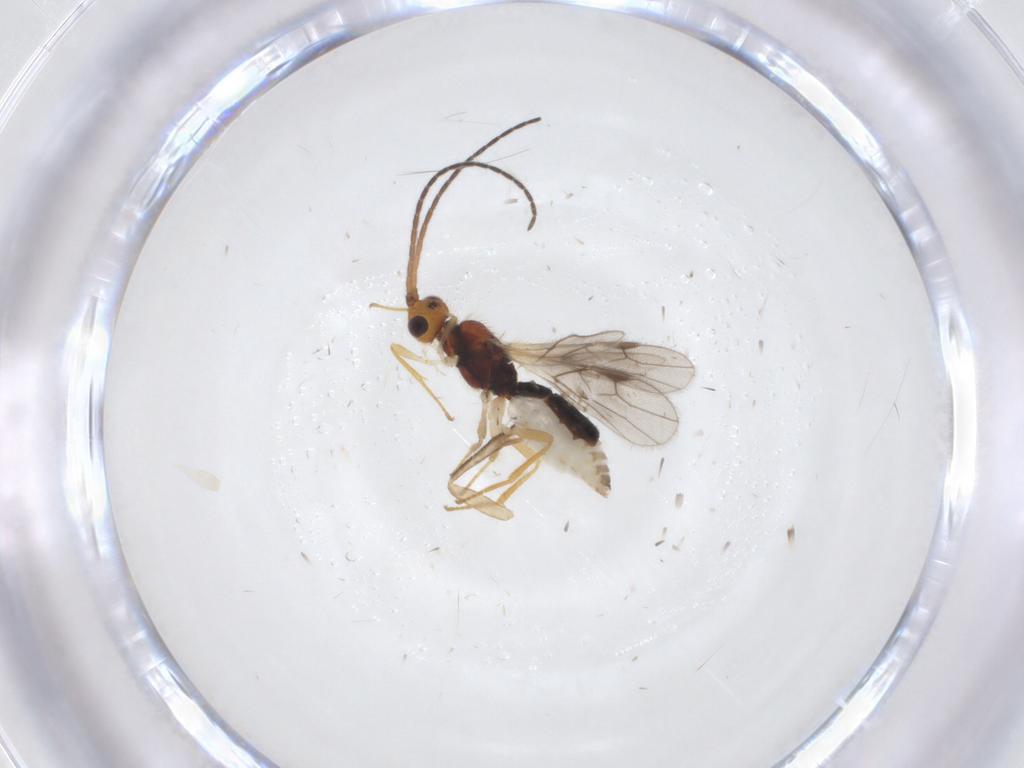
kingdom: Animalia
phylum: Arthropoda
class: Insecta
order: Hymenoptera
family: Braconidae
